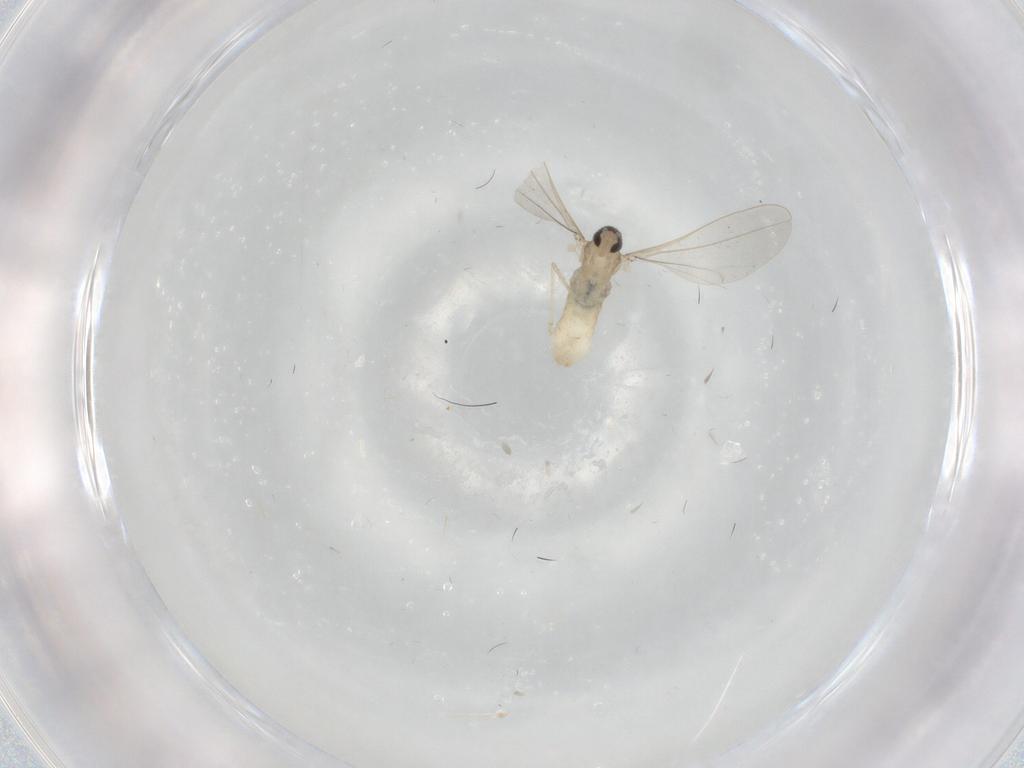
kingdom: Animalia
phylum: Arthropoda
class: Insecta
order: Diptera
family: Cecidomyiidae
